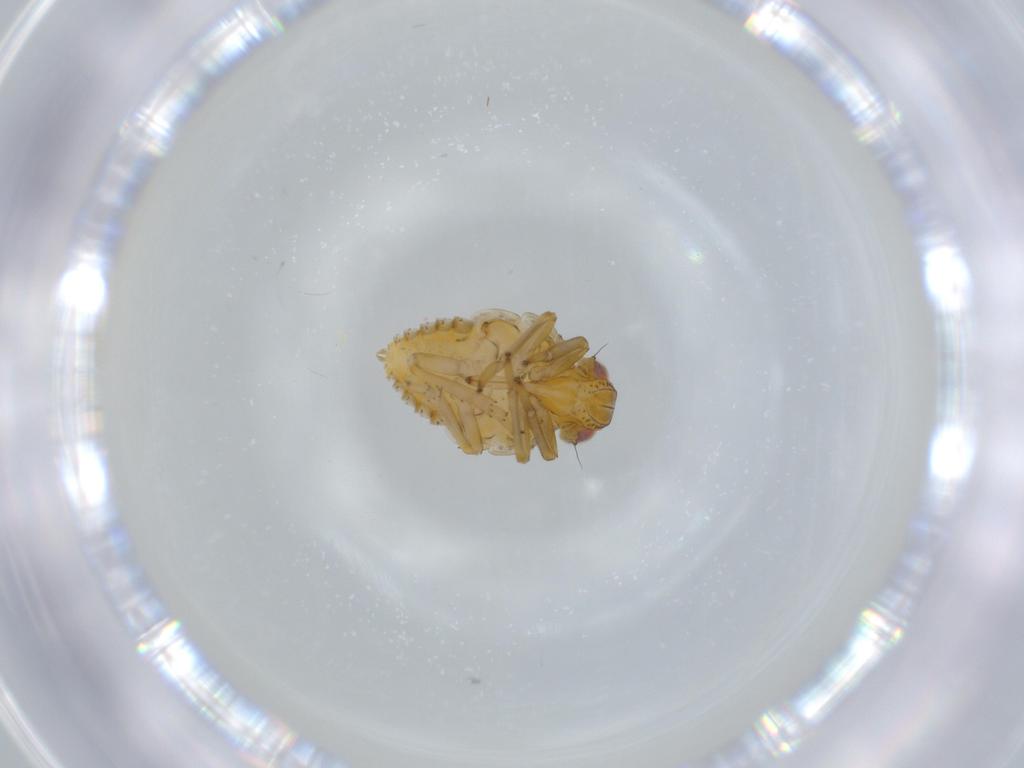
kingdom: Animalia
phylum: Arthropoda
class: Insecta
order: Hemiptera
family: Issidae
